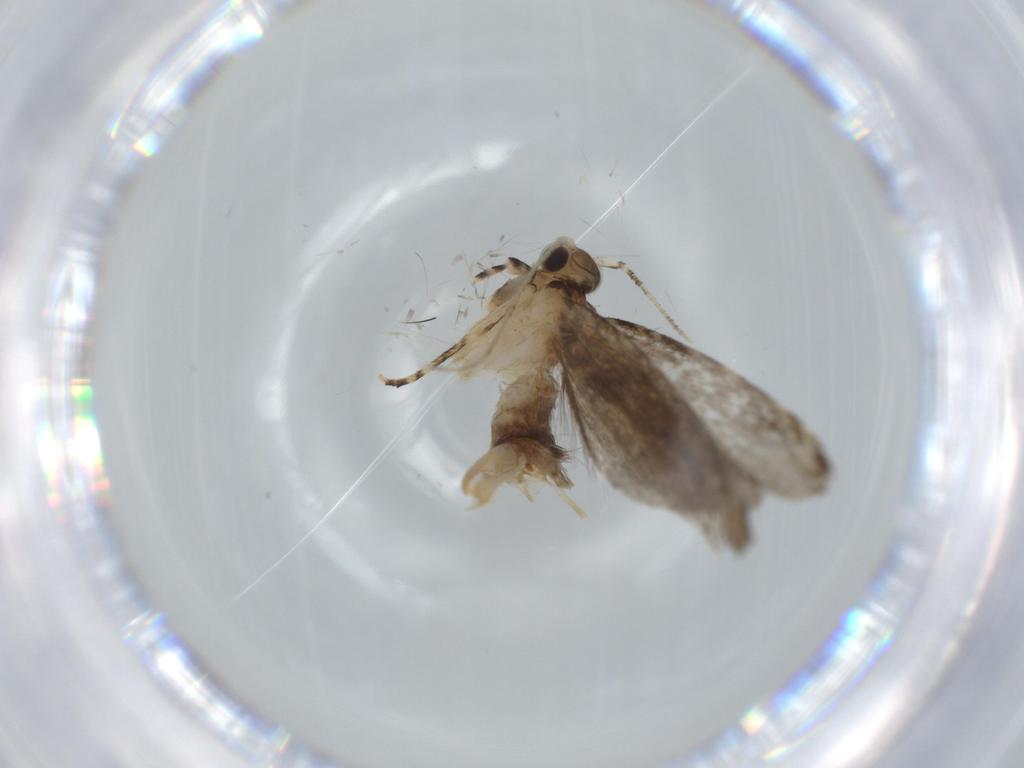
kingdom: Animalia
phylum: Arthropoda
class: Insecta
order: Lepidoptera
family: Tineidae
